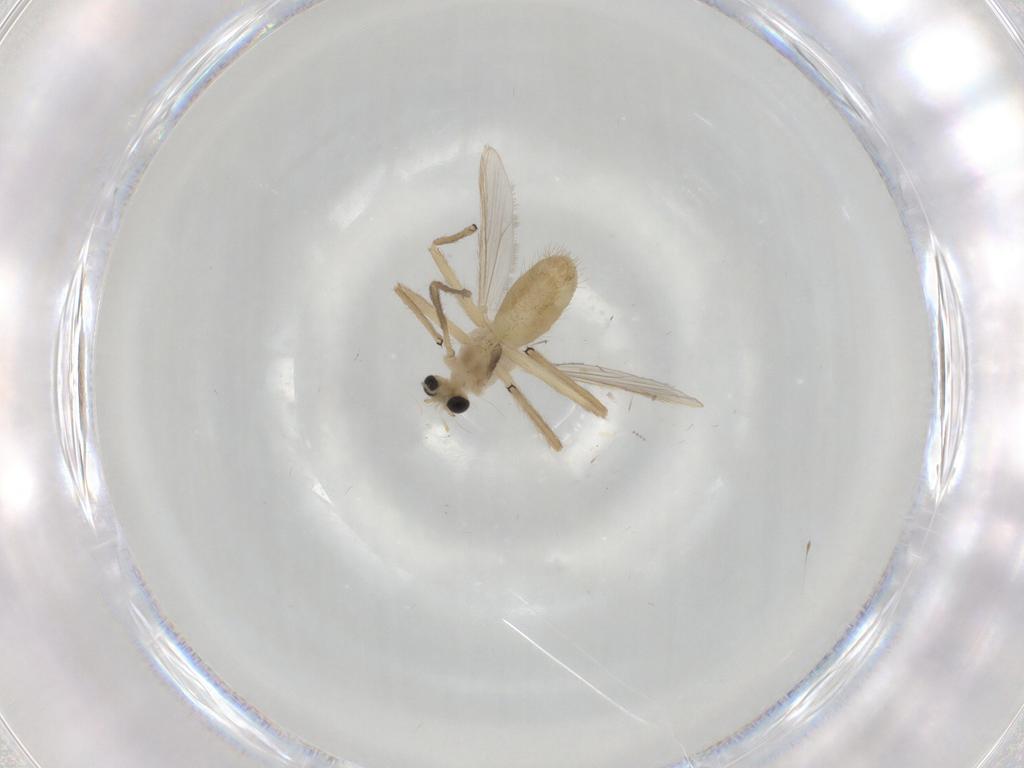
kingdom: Animalia
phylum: Arthropoda
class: Insecta
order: Diptera
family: Chironomidae
